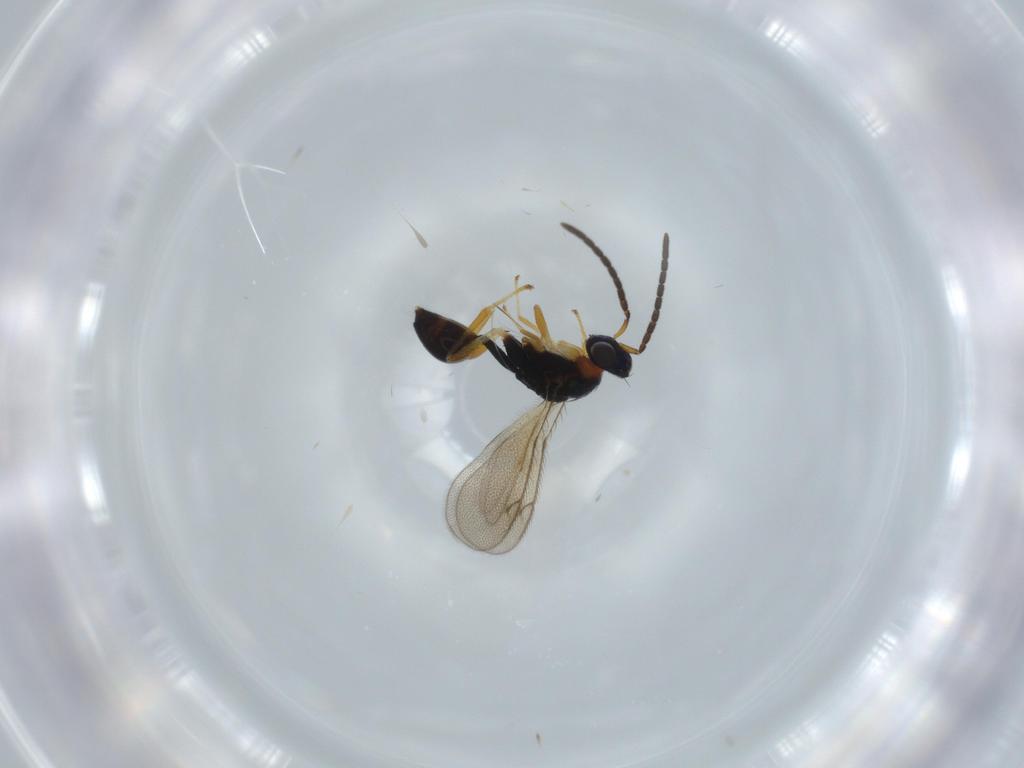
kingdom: Animalia
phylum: Arthropoda
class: Insecta
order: Hymenoptera
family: Diparidae
